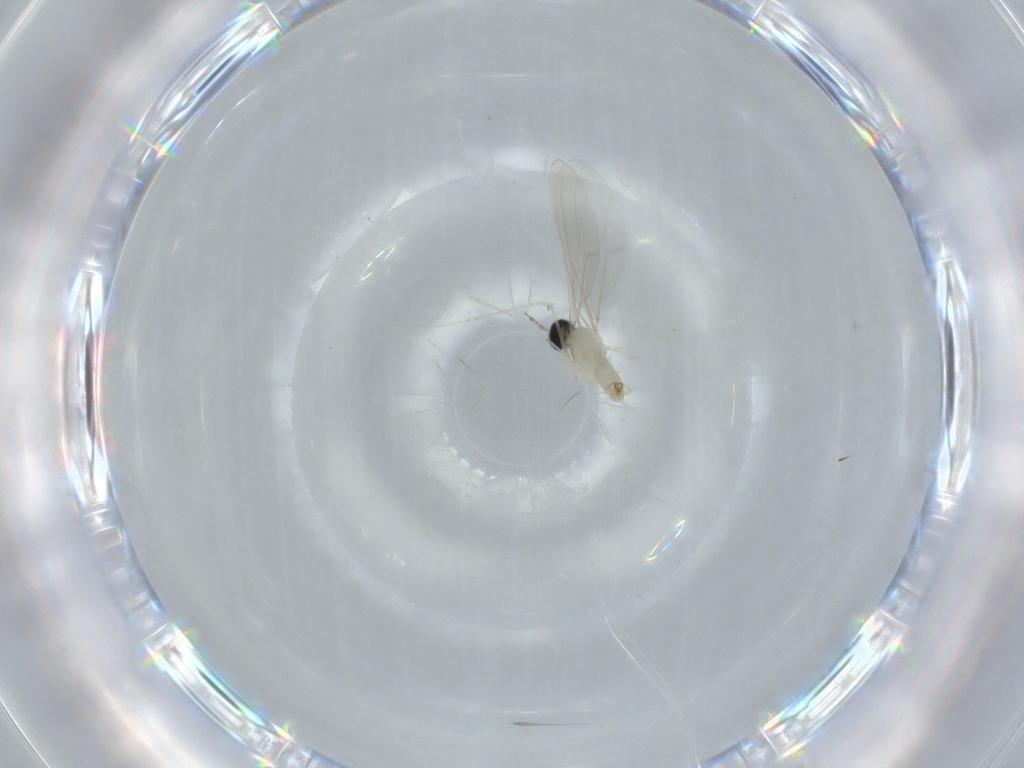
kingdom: Animalia
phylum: Arthropoda
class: Insecta
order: Diptera
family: Cecidomyiidae
